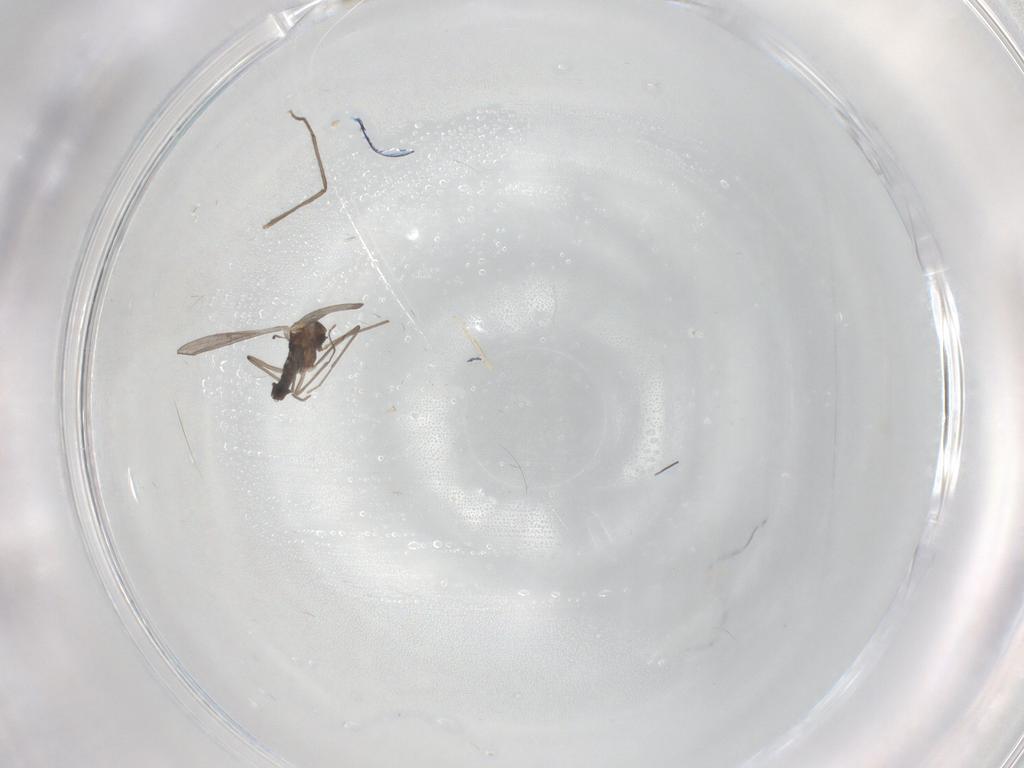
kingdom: Animalia
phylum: Arthropoda
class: Insecta
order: Diptera
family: Chironomidae
